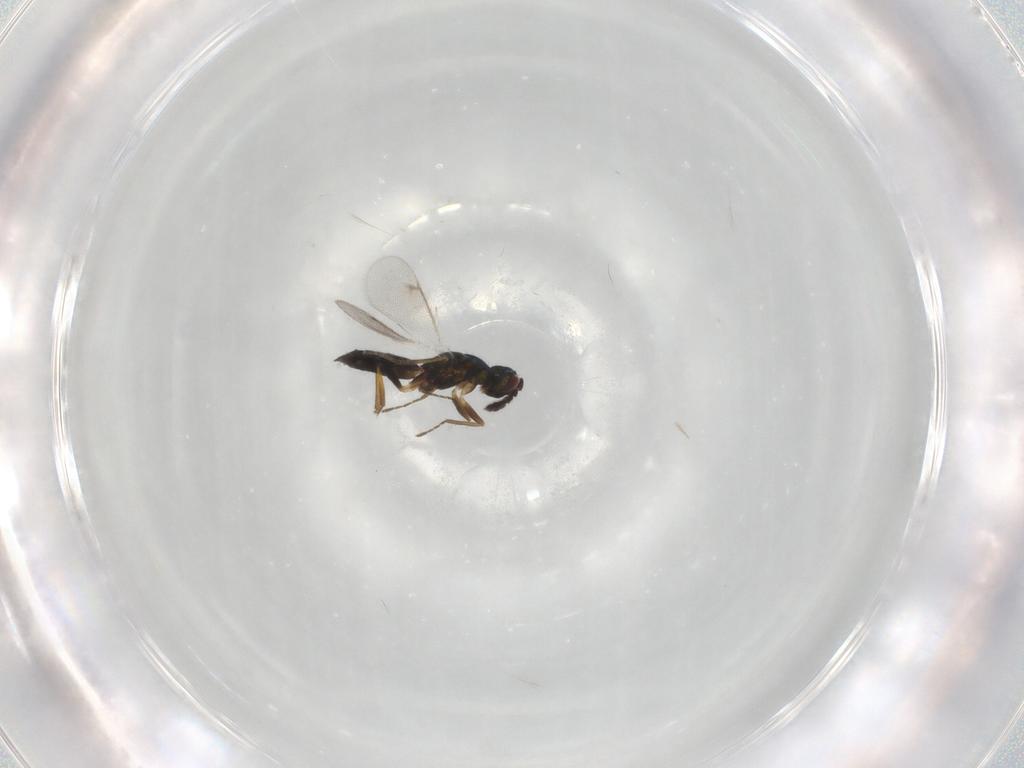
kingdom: Animalia
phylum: Arthropoda
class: Insecta
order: Hymenoptera
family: Eulophidae
